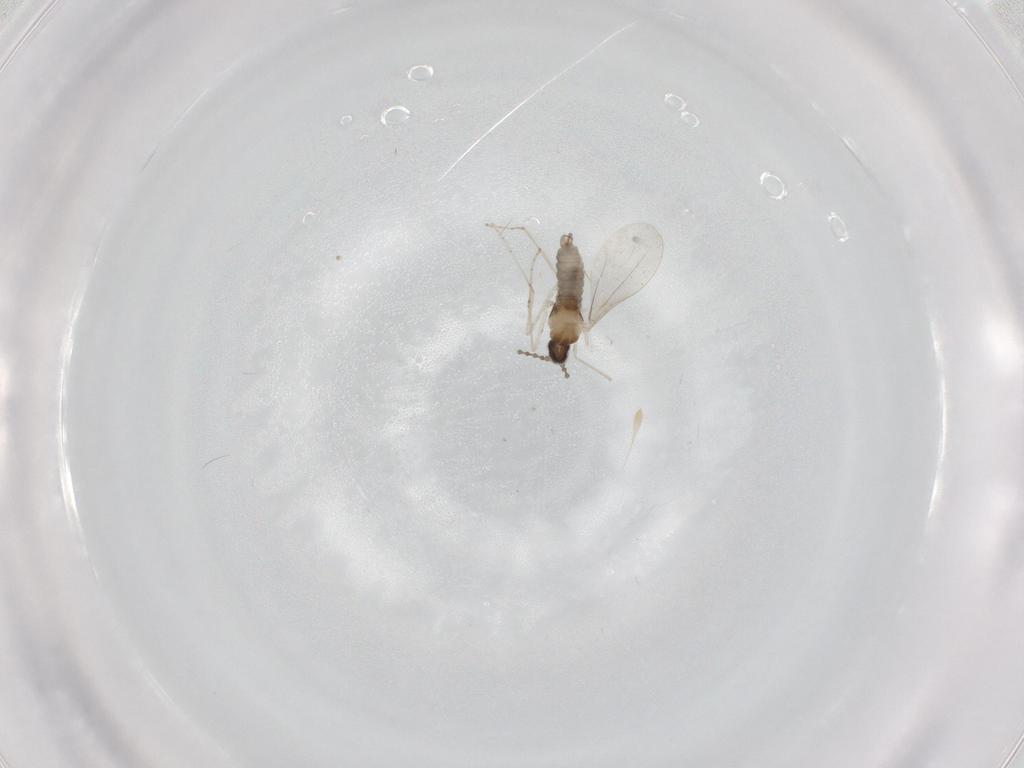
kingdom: Animalia
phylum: Arthropoda
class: Insecta
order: Diptera
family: Cecidomyiidae
